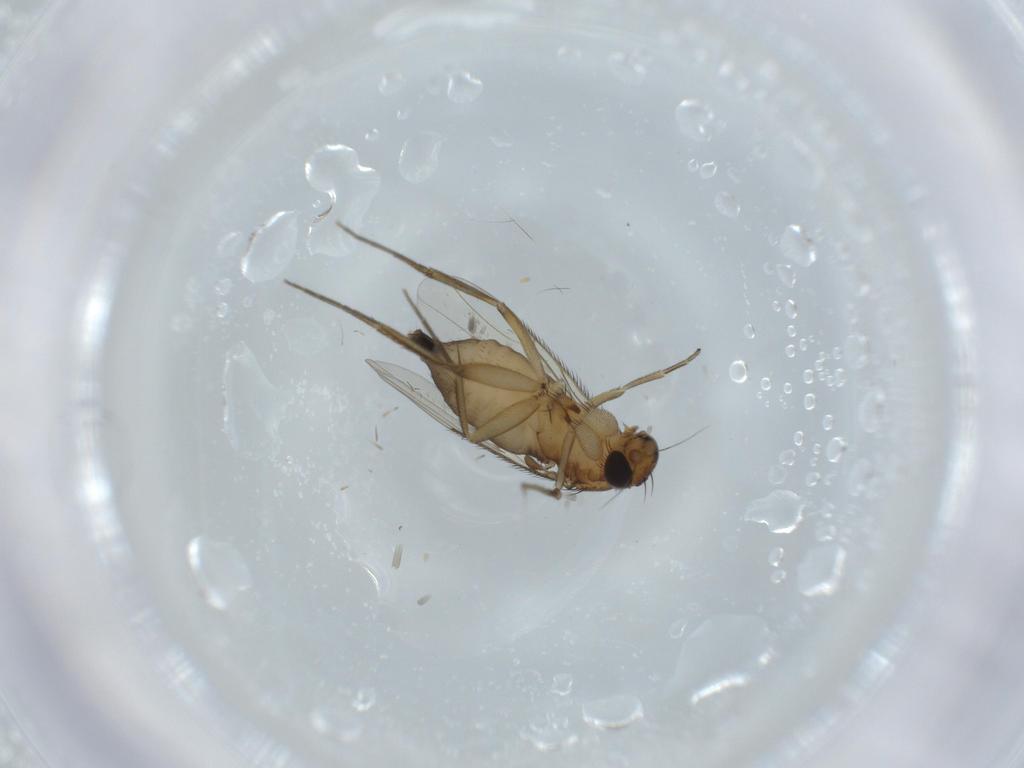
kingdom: Animalia
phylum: Arthropoda
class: Insecta
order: Diptera
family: Phoridae
